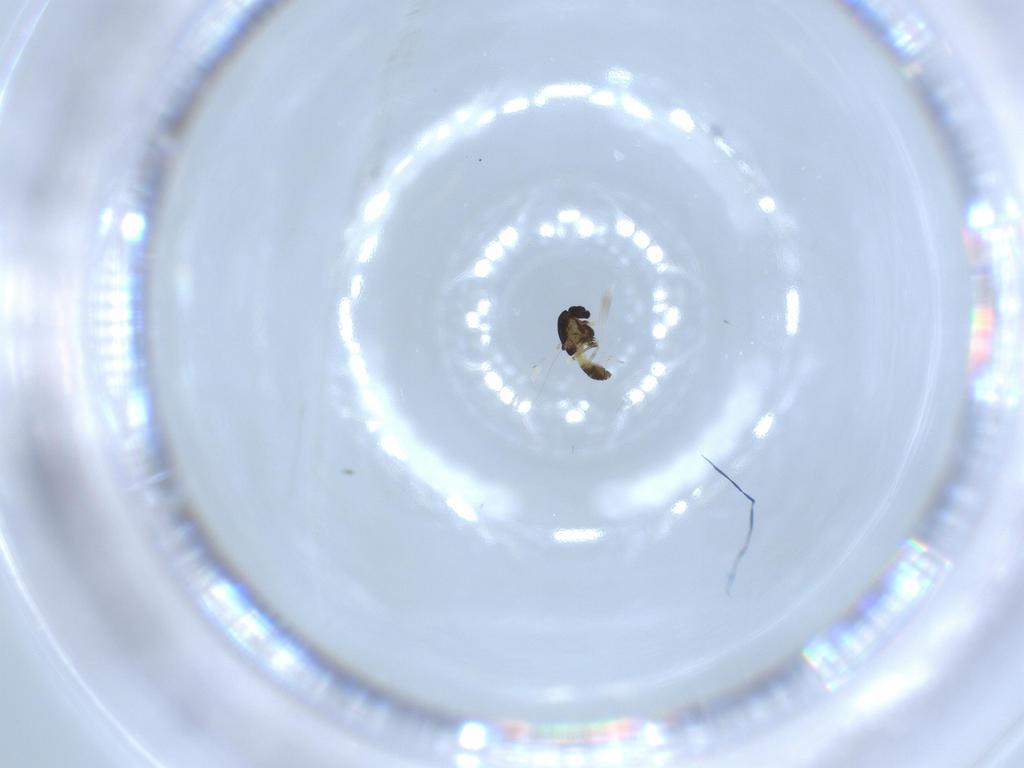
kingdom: Animalia
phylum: Arthropoda
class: Insecta
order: Diptera
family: Chironomidae
